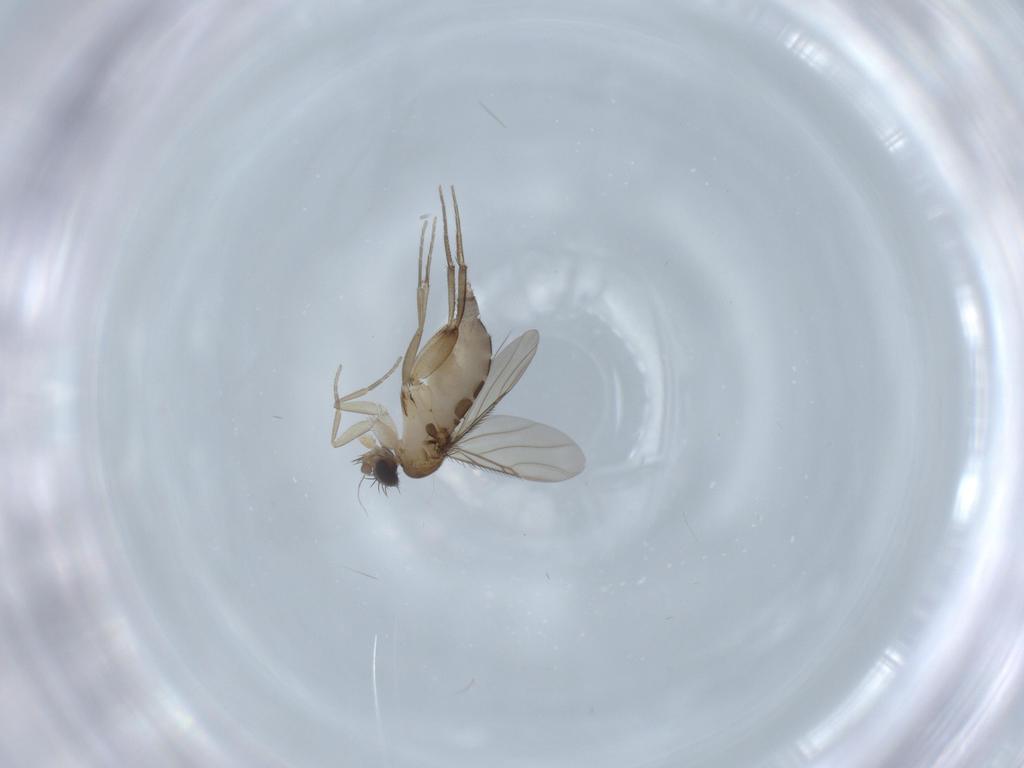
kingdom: Animalia
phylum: Arthropoda
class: Insecta
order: Diptera
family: Phoridae
